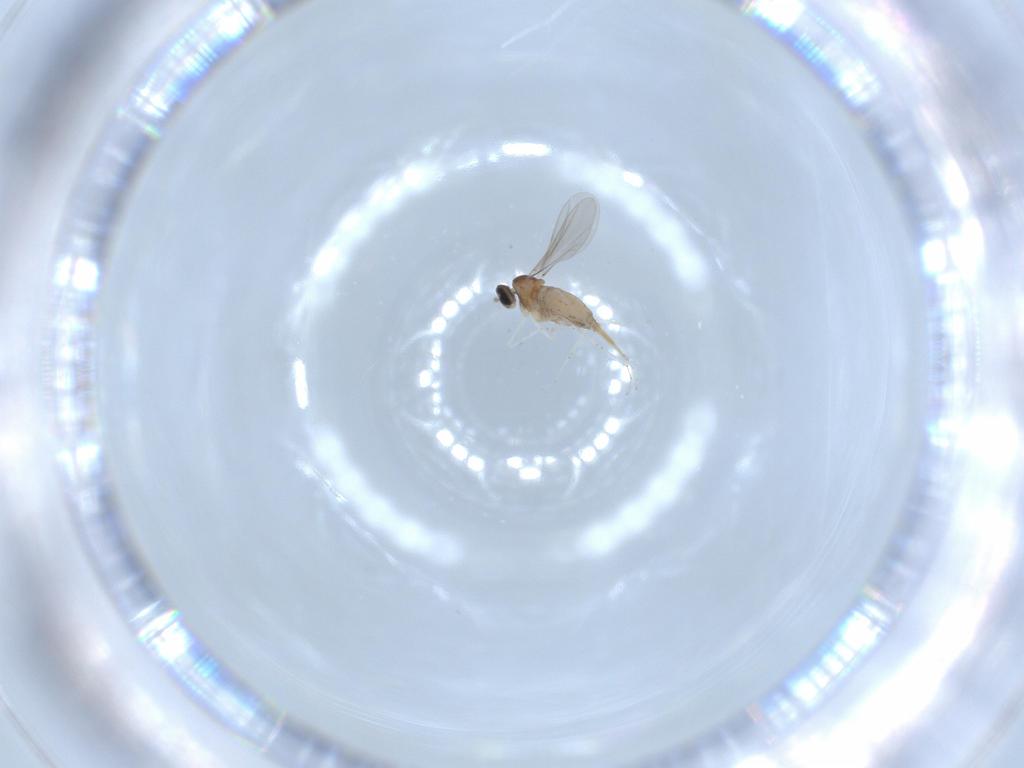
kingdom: Animalia
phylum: Arthropoda
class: Insecta
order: Diptera
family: Cecidomyiidae
